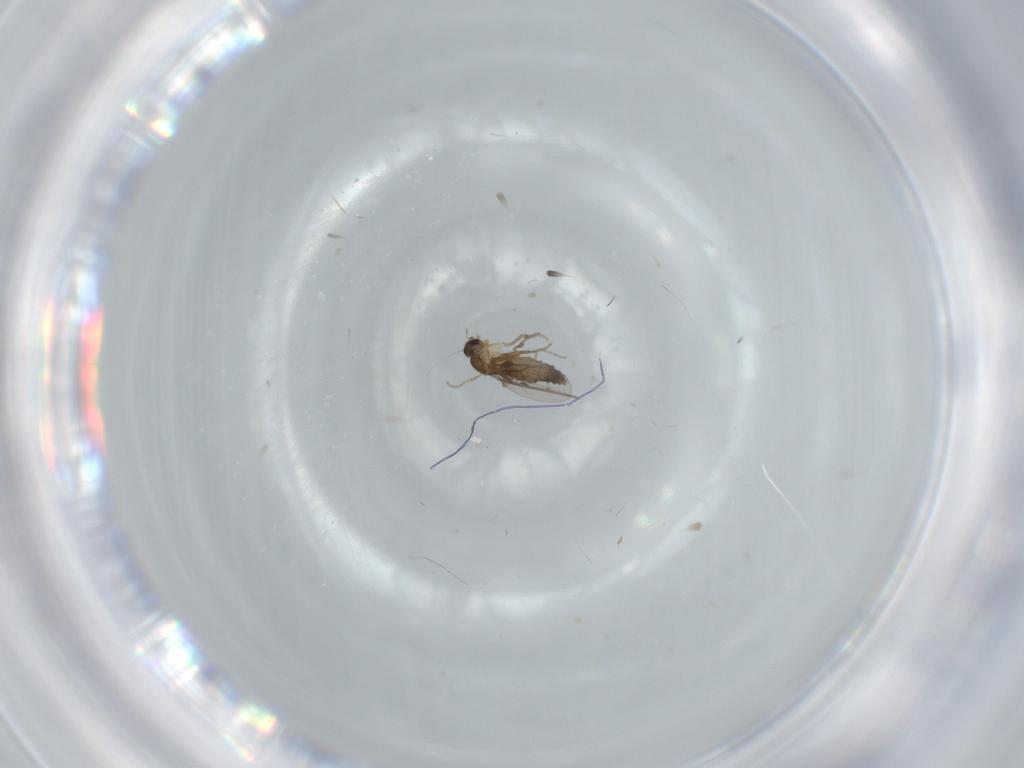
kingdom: Animalia
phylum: Arthropoda
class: Insecta
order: Diptera
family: Phoridae
